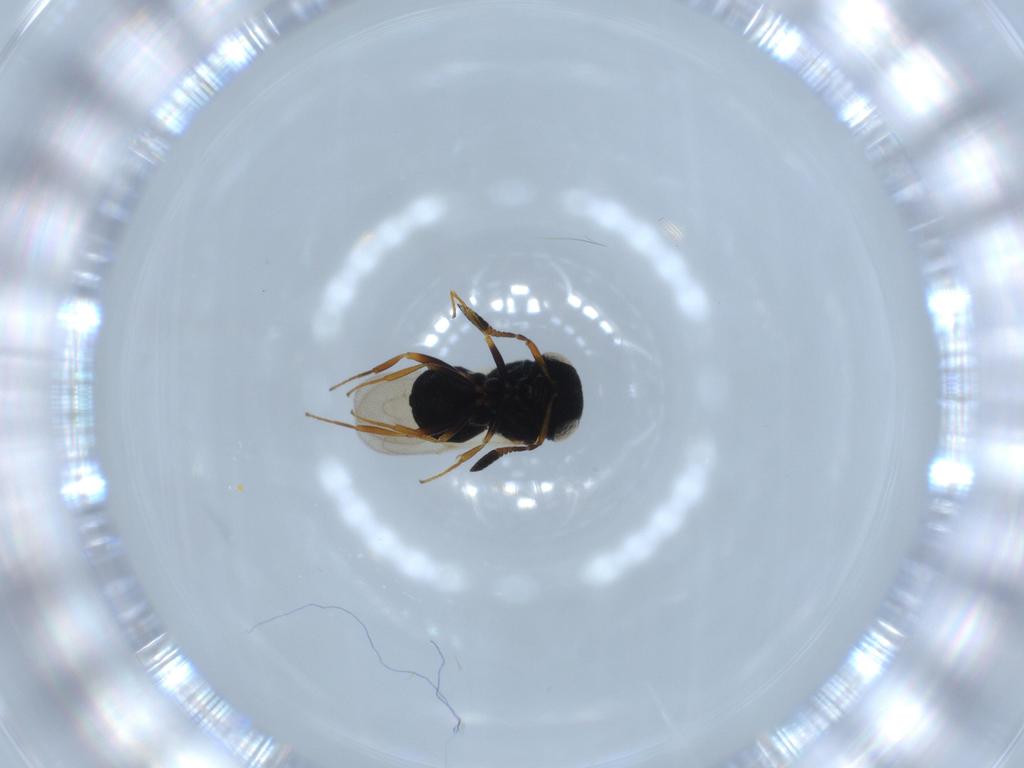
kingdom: Animalia
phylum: Arthropoda
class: Insecta
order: Hymenoptera
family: Scelionidae
